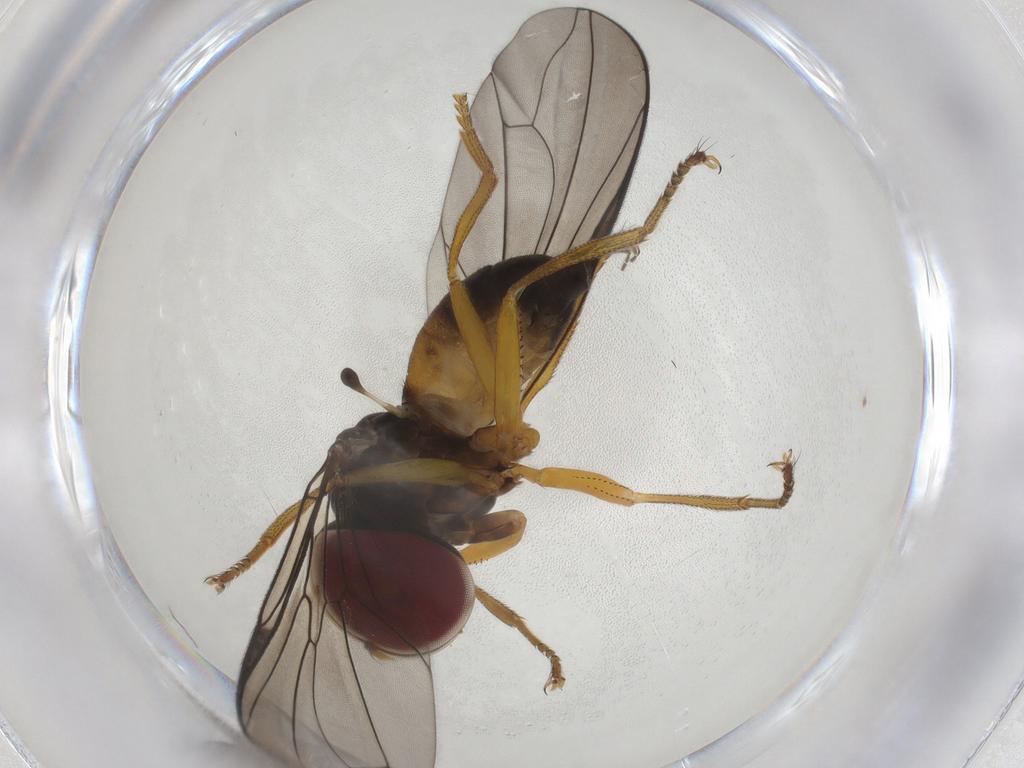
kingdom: Animalia
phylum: Arthropoda
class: Insecta
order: Diptera
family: Pipunculidae
